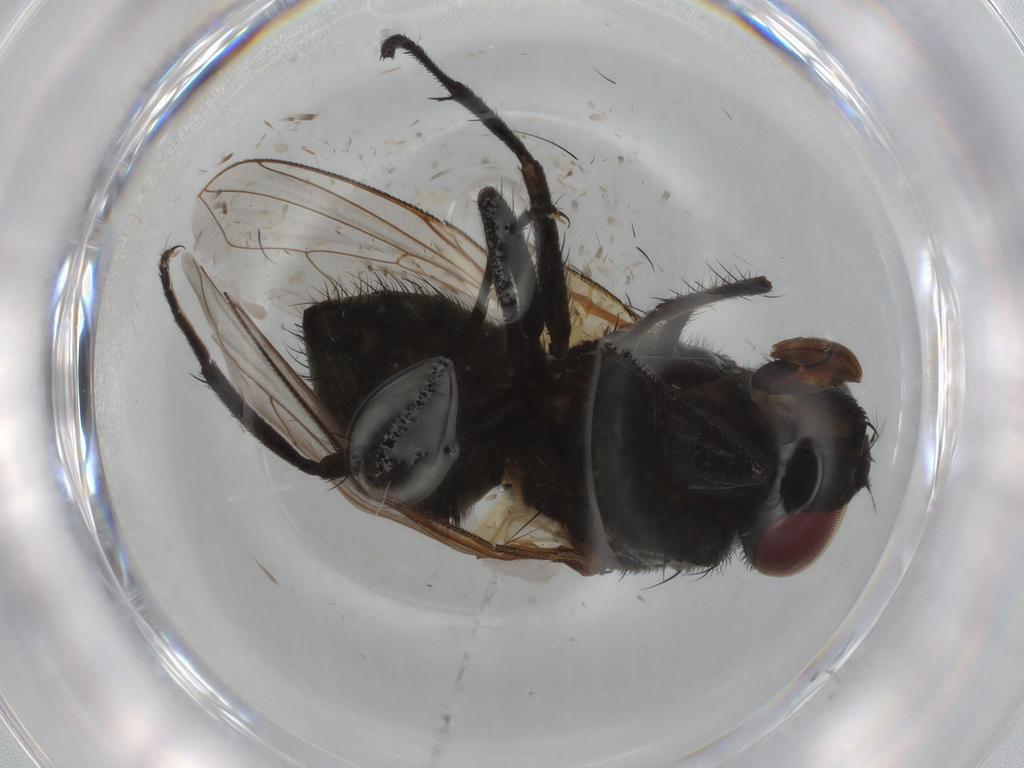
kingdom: Animalia
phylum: Arthropoda
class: Insecta
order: Diptera
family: Muscidae
